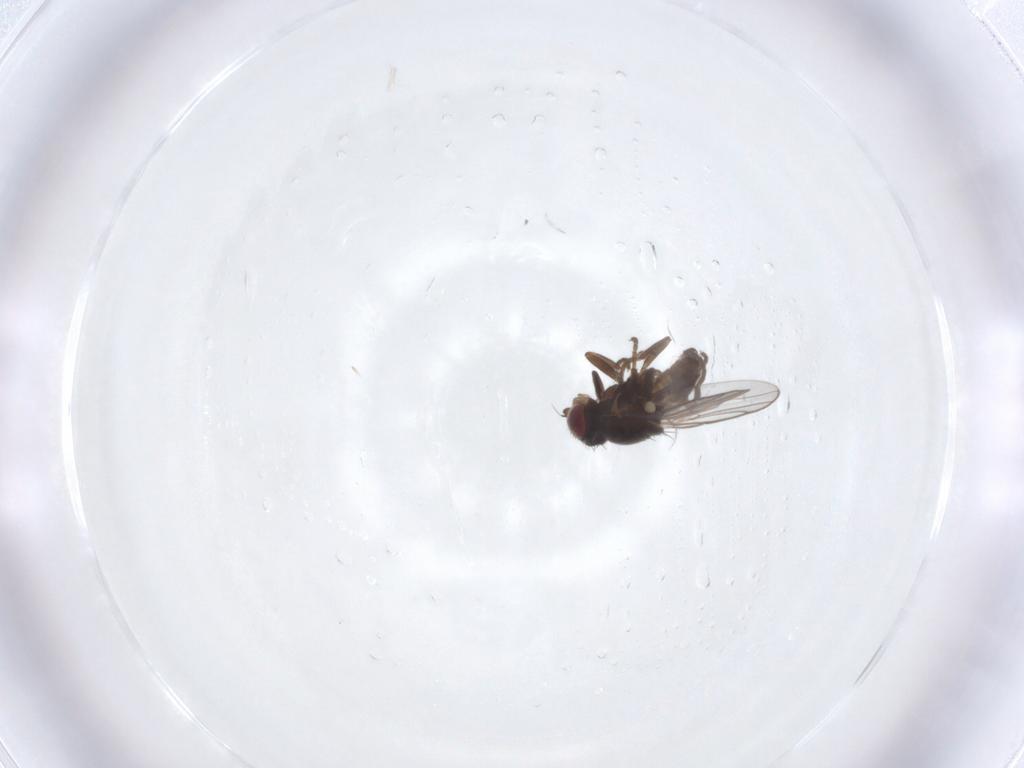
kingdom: Animalia
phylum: Arthropoda
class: Insecta
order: Diptera
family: Chloropidae
